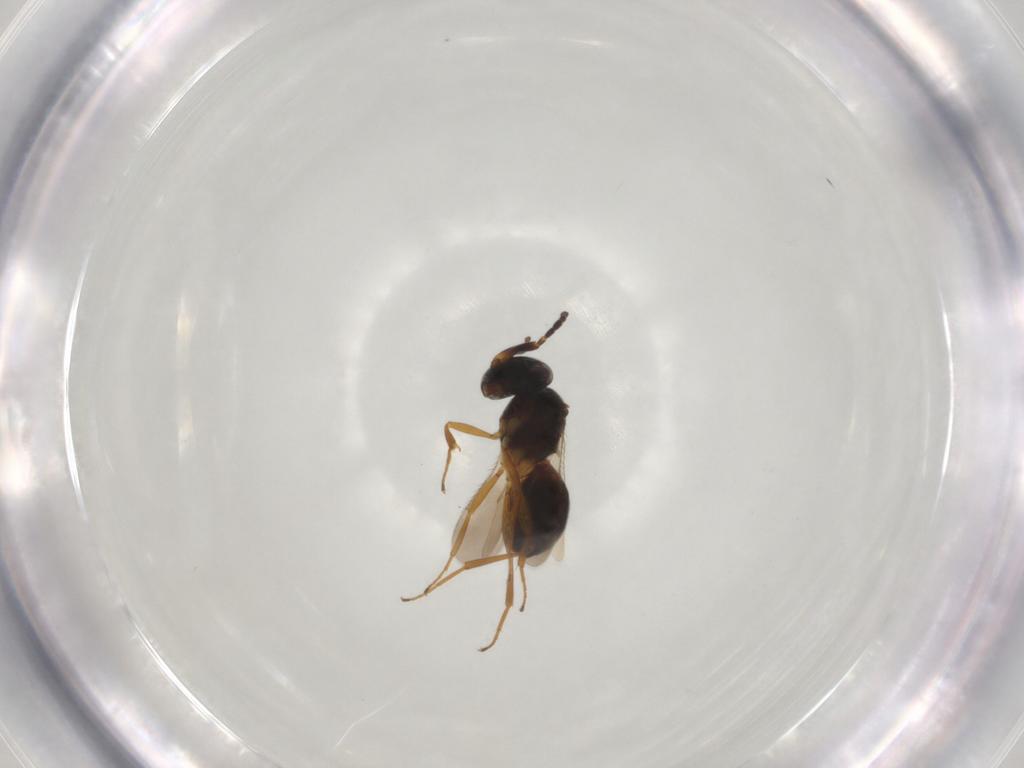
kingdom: Animalia
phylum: Arthropoda
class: Insecta
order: Hymenoptera
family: Scelionidae
